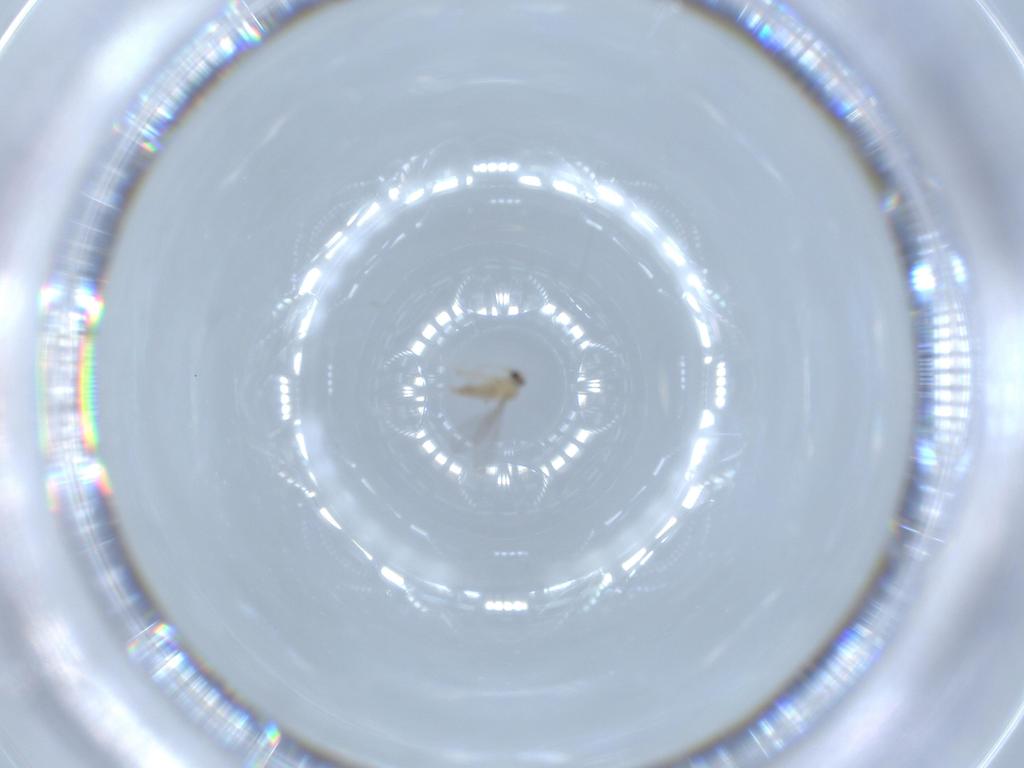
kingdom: Animalia
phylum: Arthropoda
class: Insecta
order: Diptera
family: Cecidomyiidae
